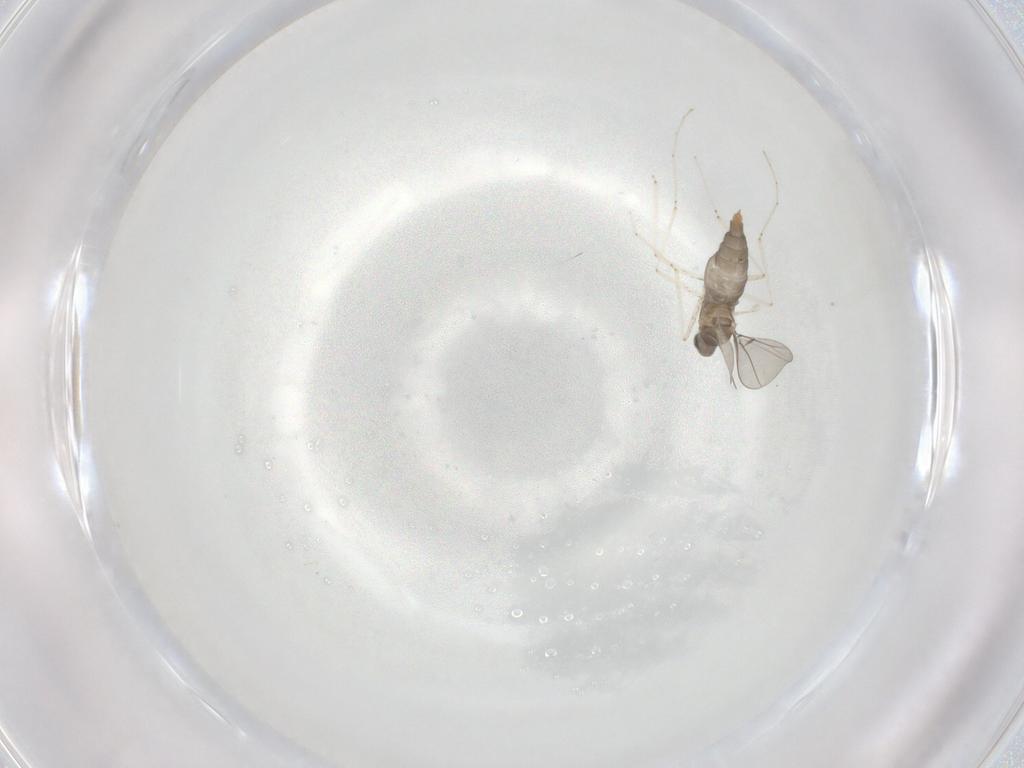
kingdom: Animalia
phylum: Arthropoda
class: Insecta
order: Diptera
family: Cecidomyiidae
